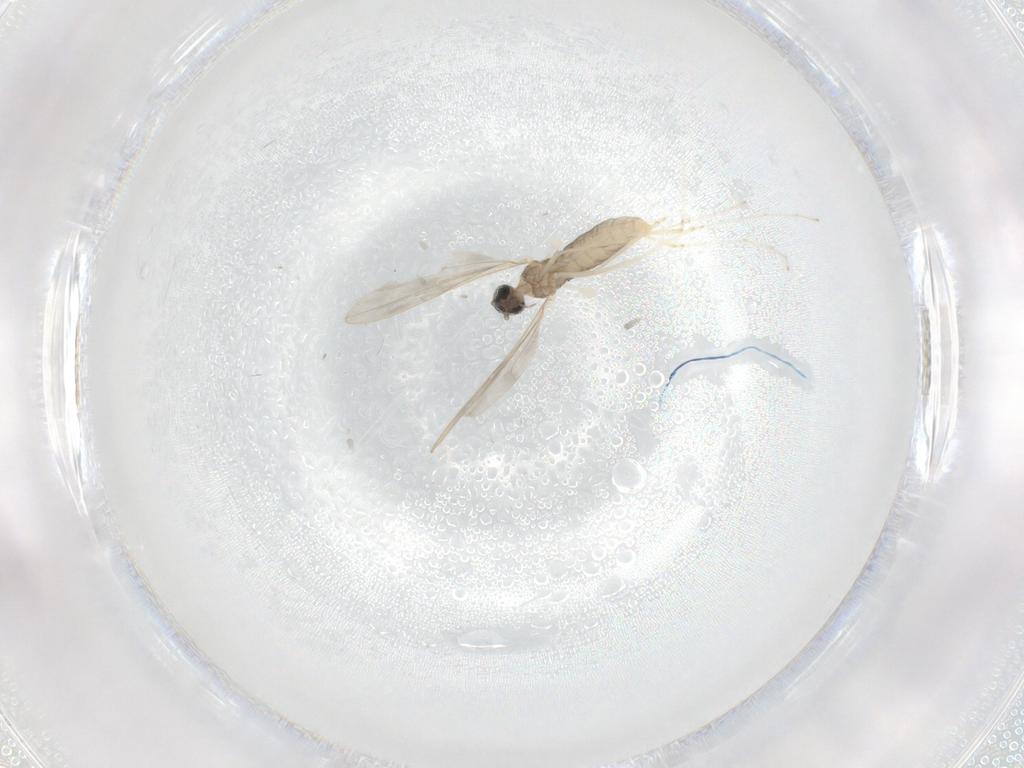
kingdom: Animalia
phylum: Arthropoda
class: Insecta
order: Diptera
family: Psychodidae
